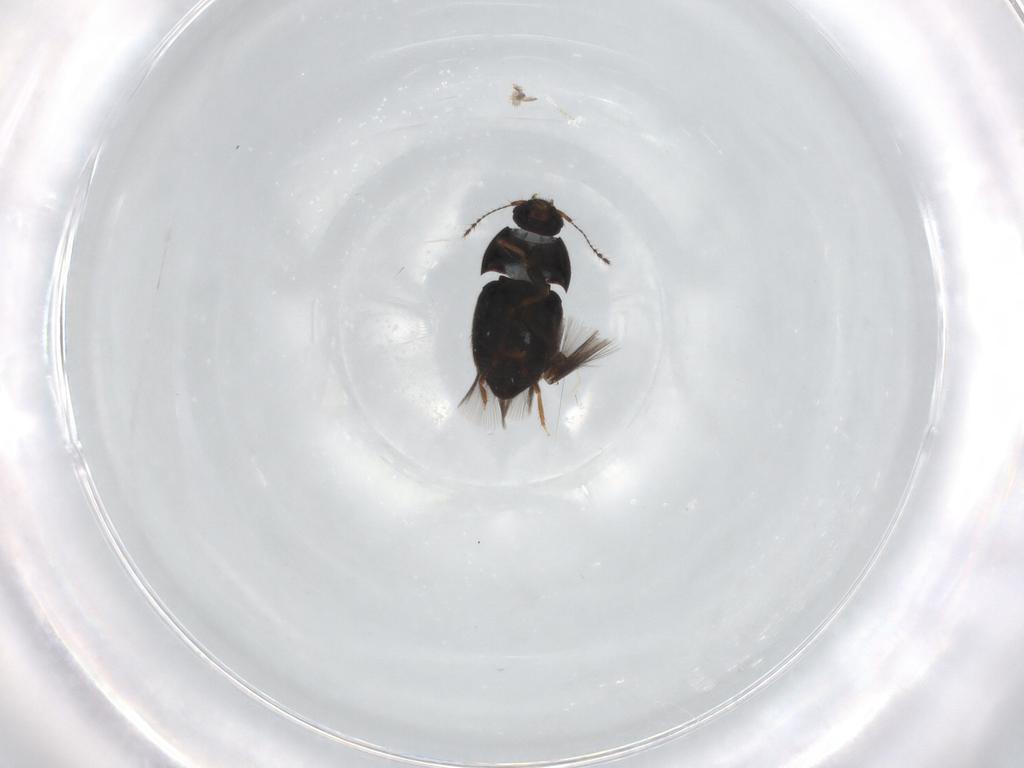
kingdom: Animalia
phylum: Arthropoda
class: Insecta
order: Coleoptera
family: Ptiliidae
